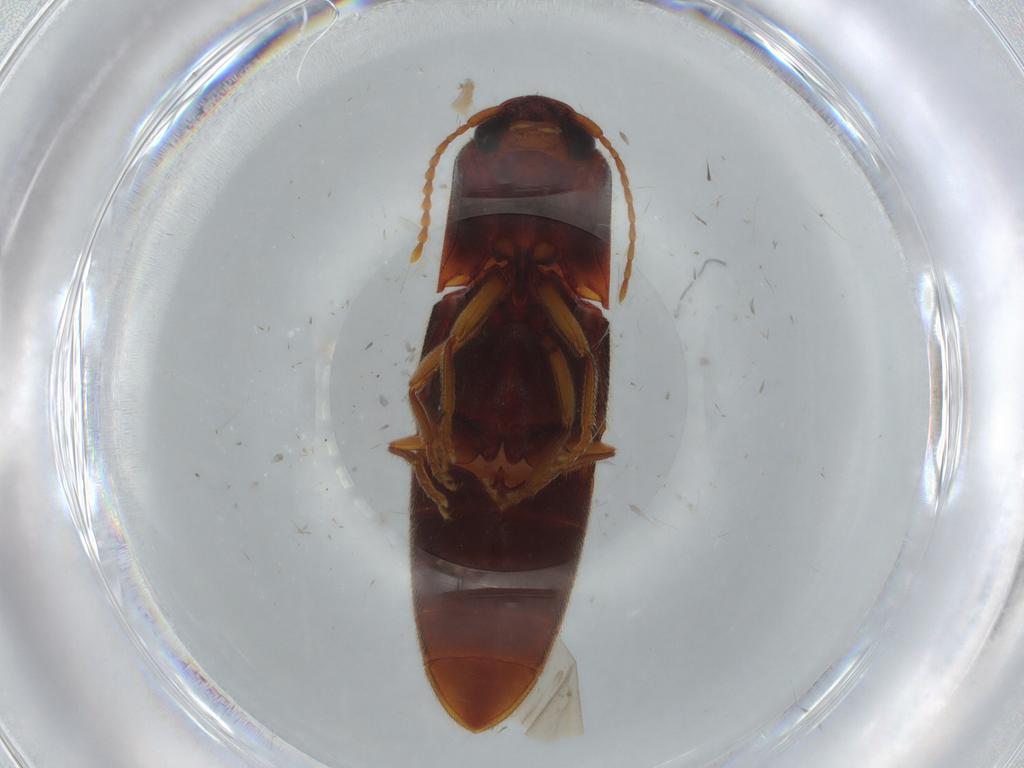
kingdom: Animalia
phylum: Arthropoda
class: Insecta
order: Coleoptera
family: Elateridae
